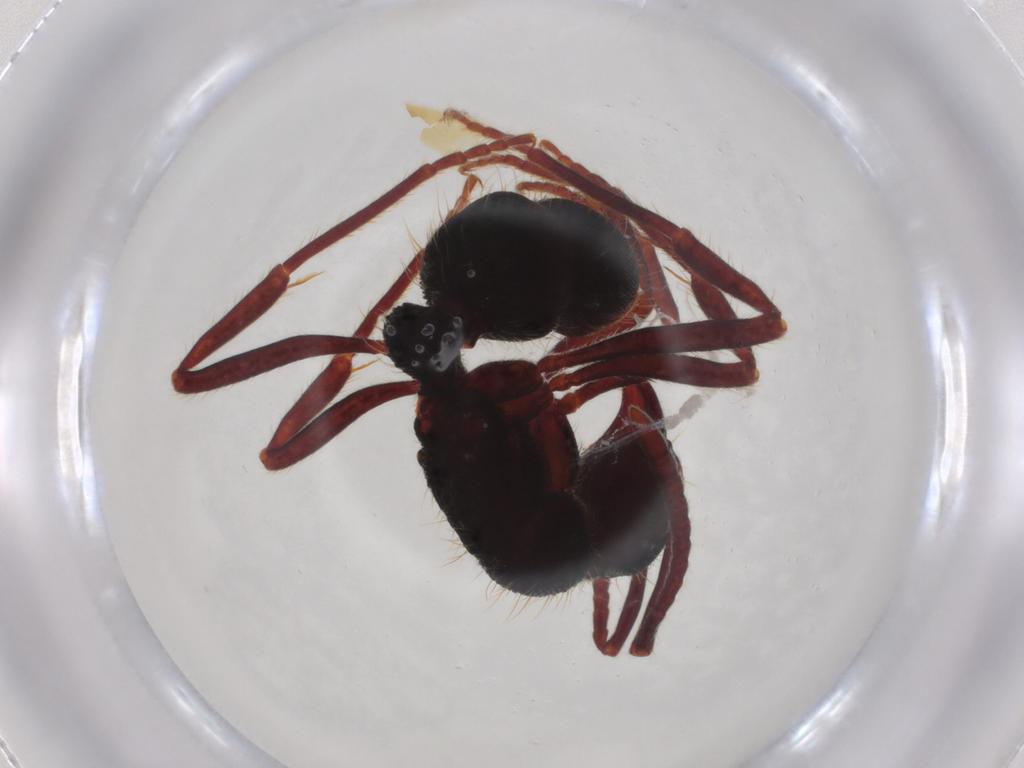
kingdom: Animalia
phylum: Arthropoda
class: Insecta
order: Hymenoptera
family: Formicidae
